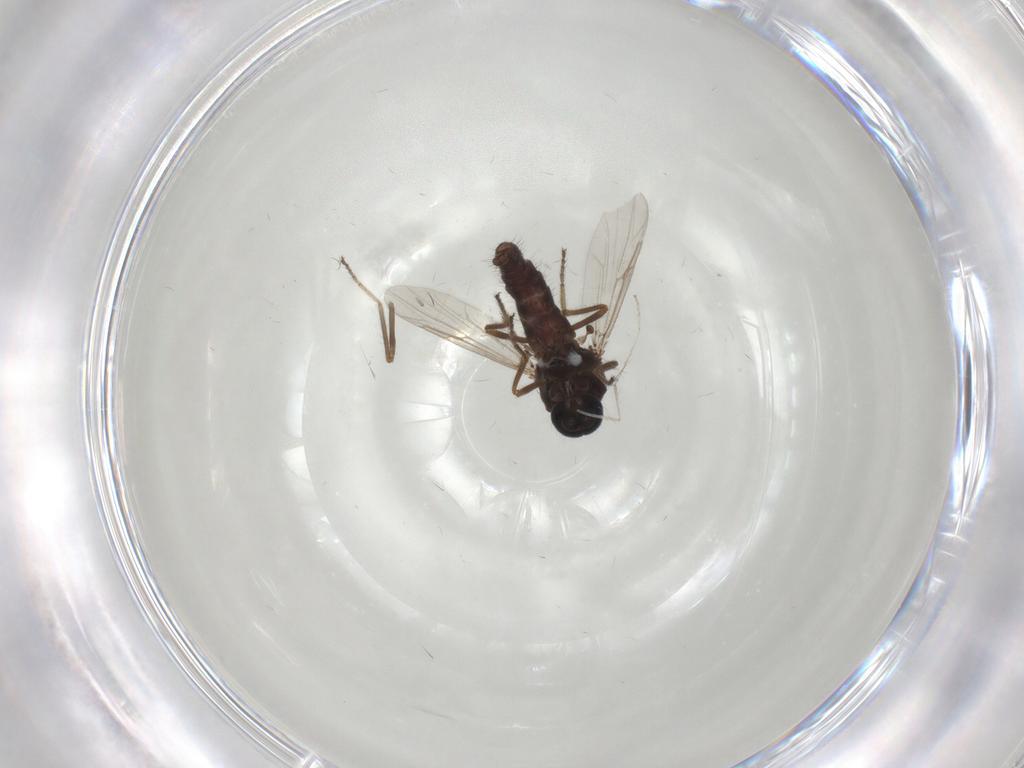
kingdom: Animalia
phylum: Arthropoda
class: Insecta
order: Diptera
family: Ceratopogonidae
